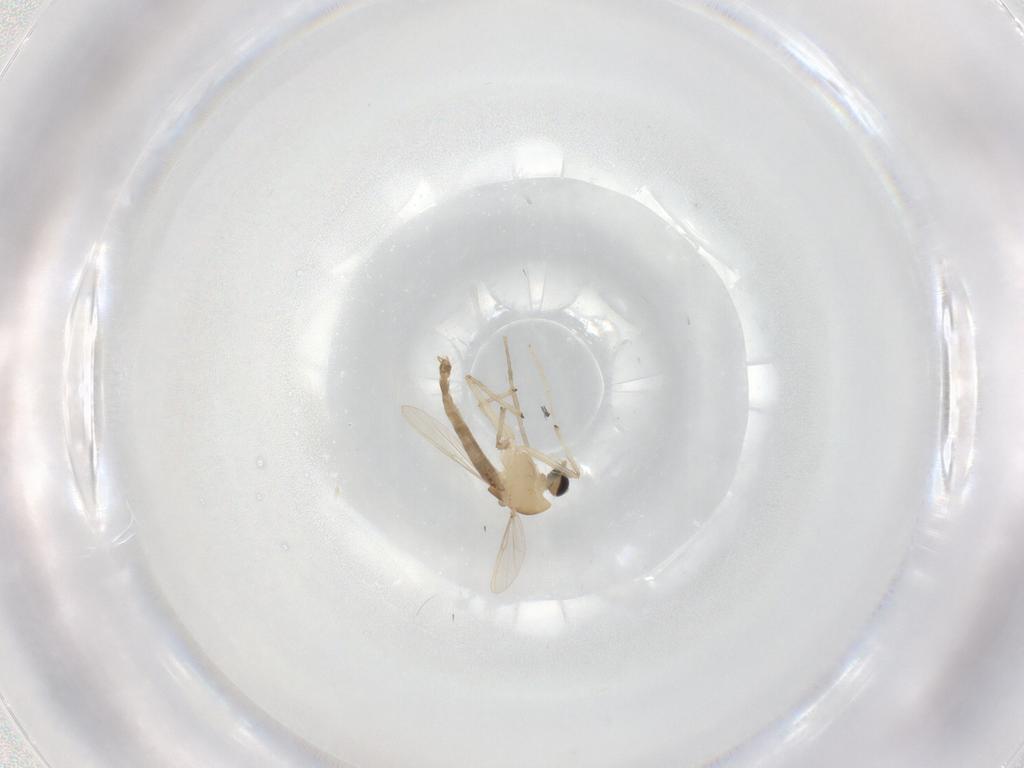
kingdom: Animalia
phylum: Arthropoda
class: Insecta
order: Diptera
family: Chironomidae
